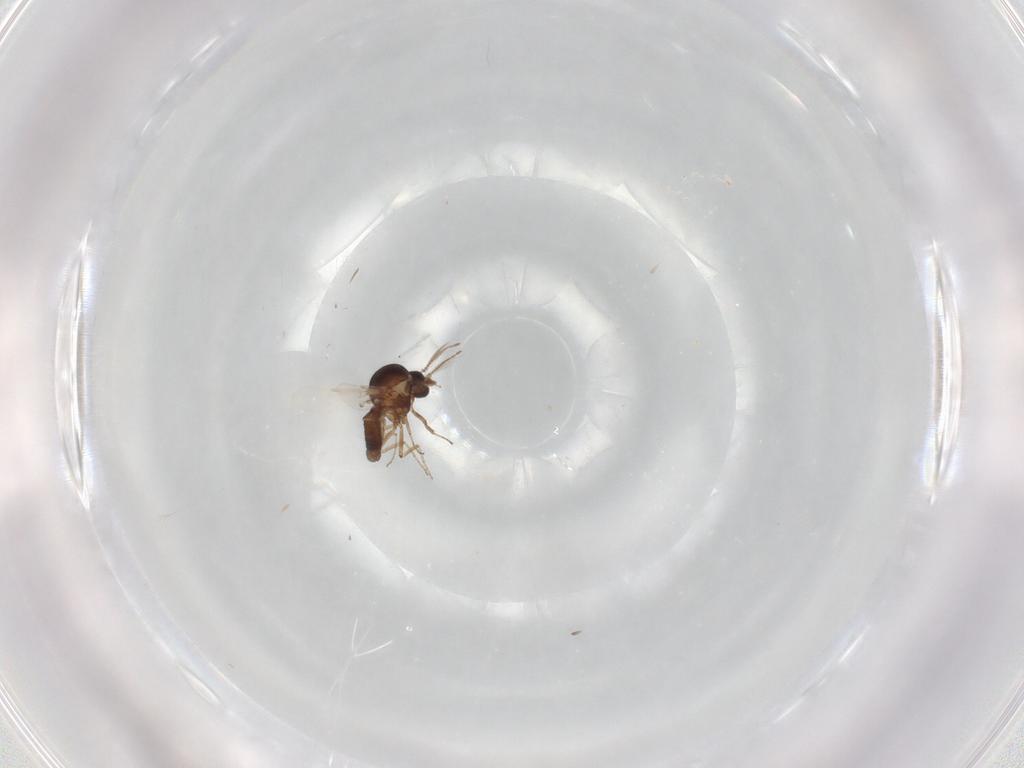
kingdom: Animalia
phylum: Arthropoda
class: Insecta
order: Diptera
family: Ceratopogonidae
